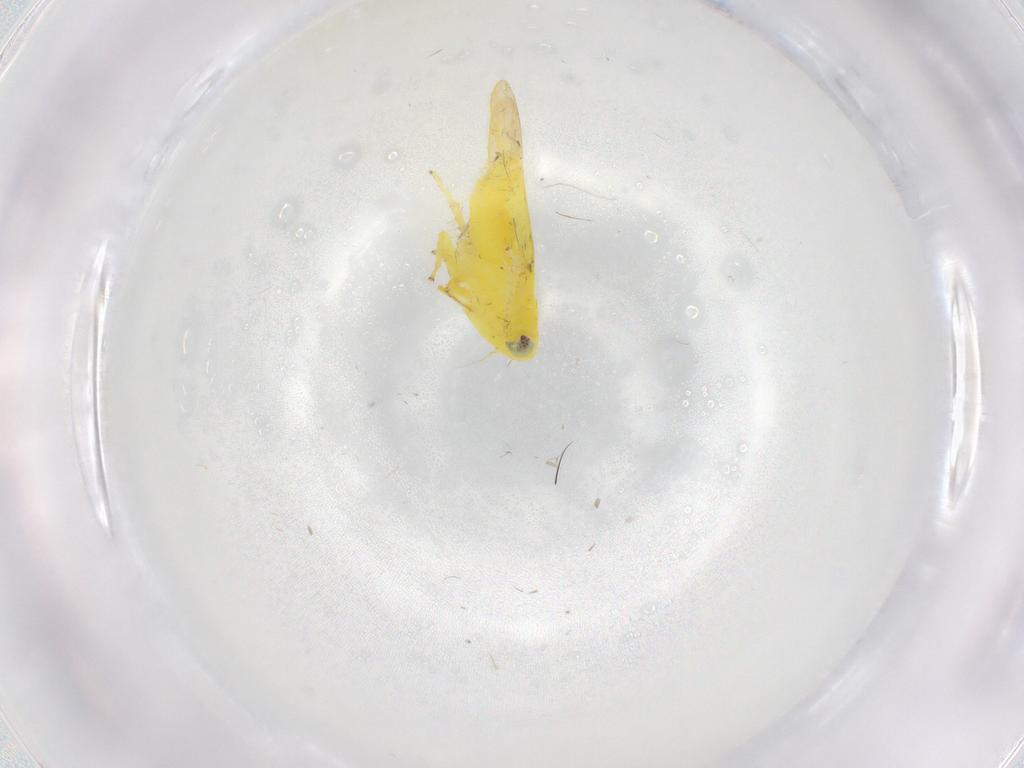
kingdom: Animalia
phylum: Arthropoda
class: Insecta
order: Hemiptera
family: Cicadellidae
